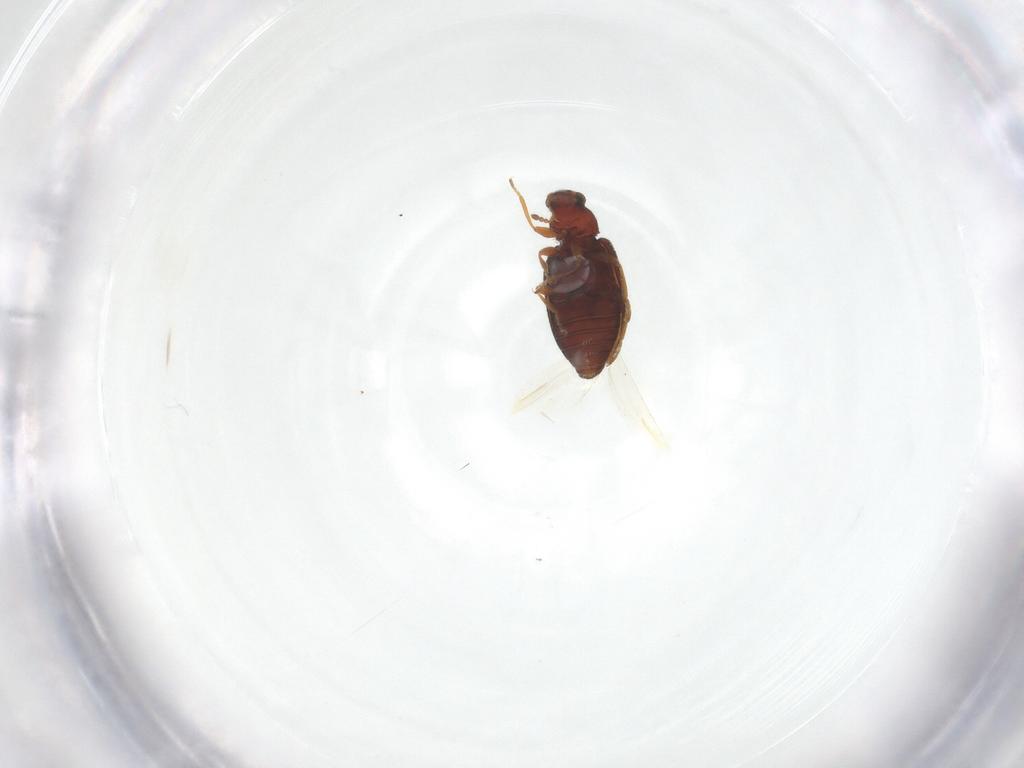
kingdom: Animalia
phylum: Arthropoda
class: Insecta
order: Coleoptera
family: Latridiidae
